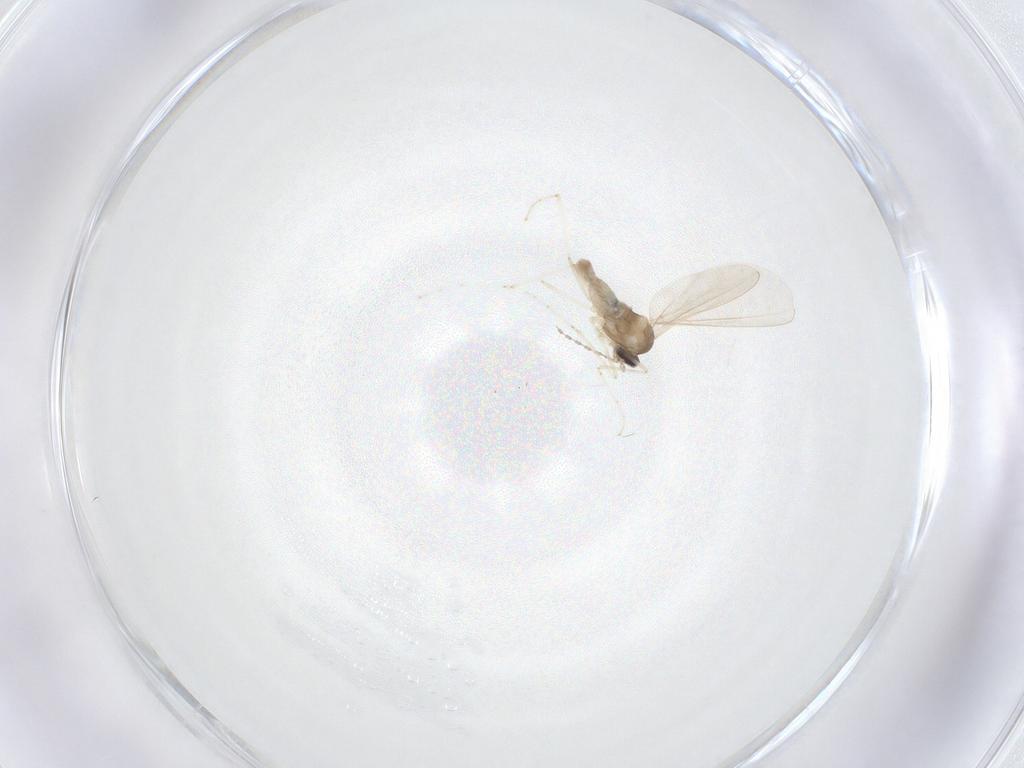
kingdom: Animalia
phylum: Arthropoda
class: Insecta
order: Diptera
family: Cecidomyiidae
